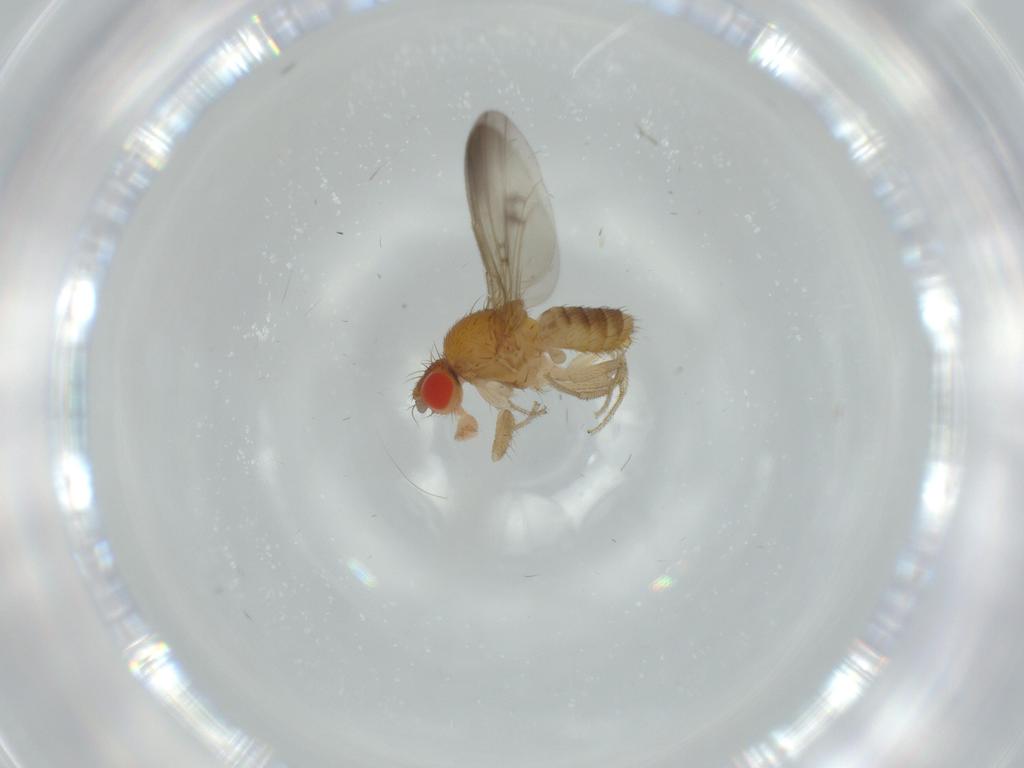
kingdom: Animalia
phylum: Arthropoda
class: Insecta
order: Diptera
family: Drosophilidae
